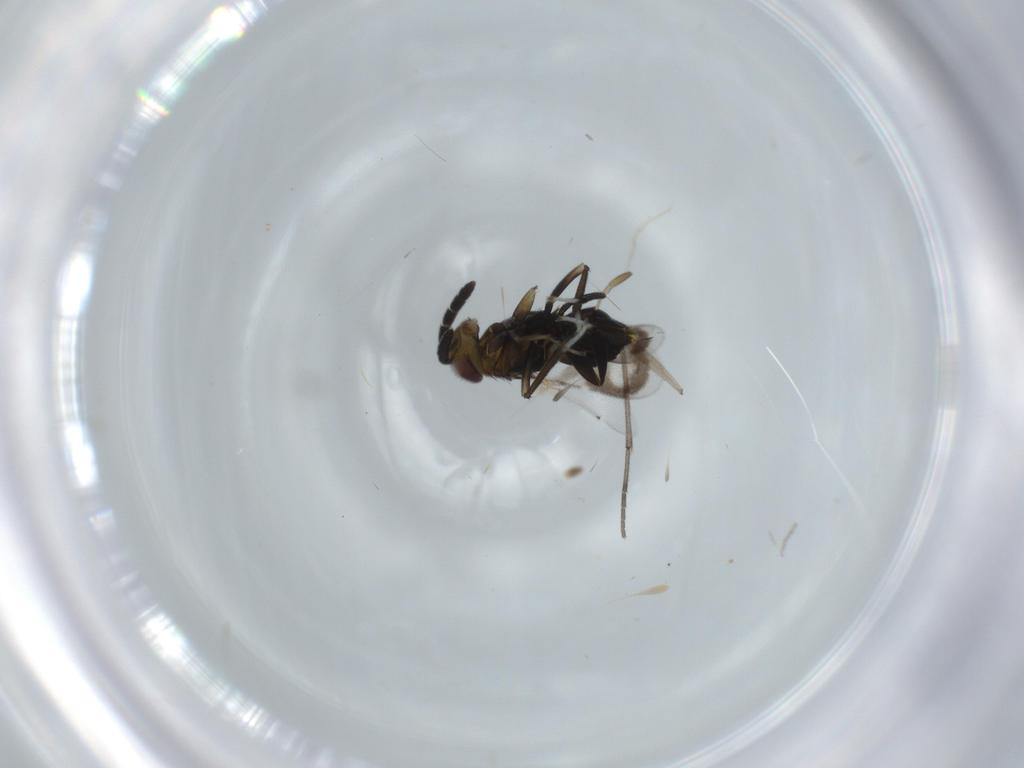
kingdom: Animalia
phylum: Arthropoda
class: Insecta
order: Hymenoptera
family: Aphelinidae
